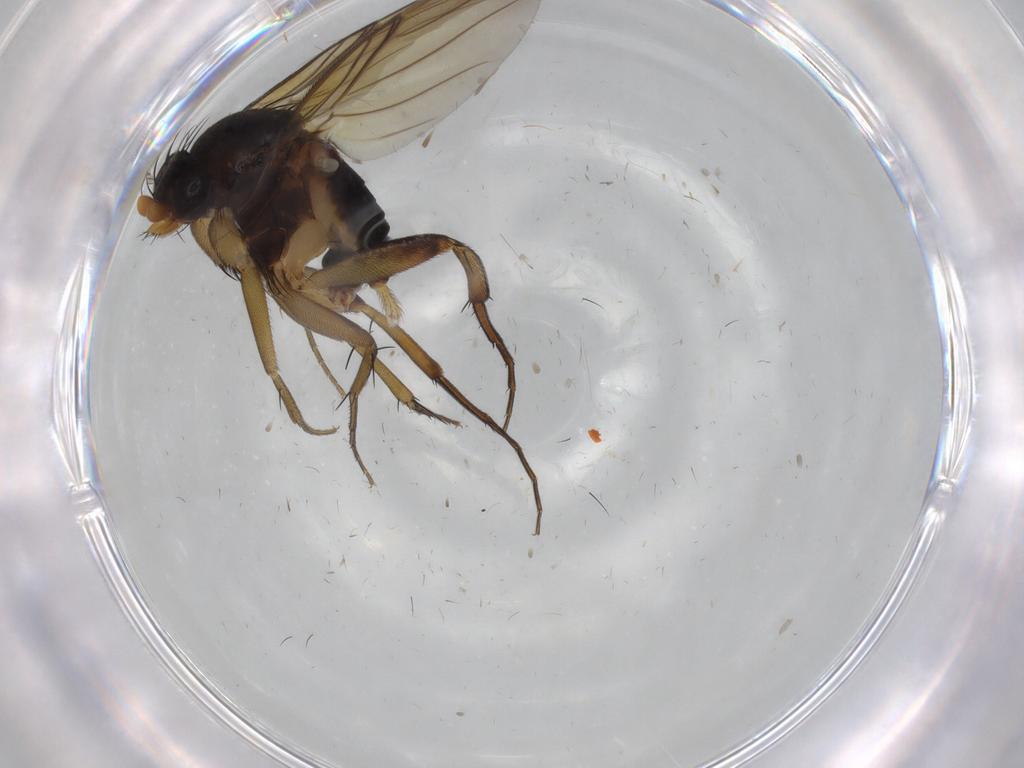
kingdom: Animalia
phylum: Arthropoda
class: Insecta
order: Diptera
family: Phoridae
